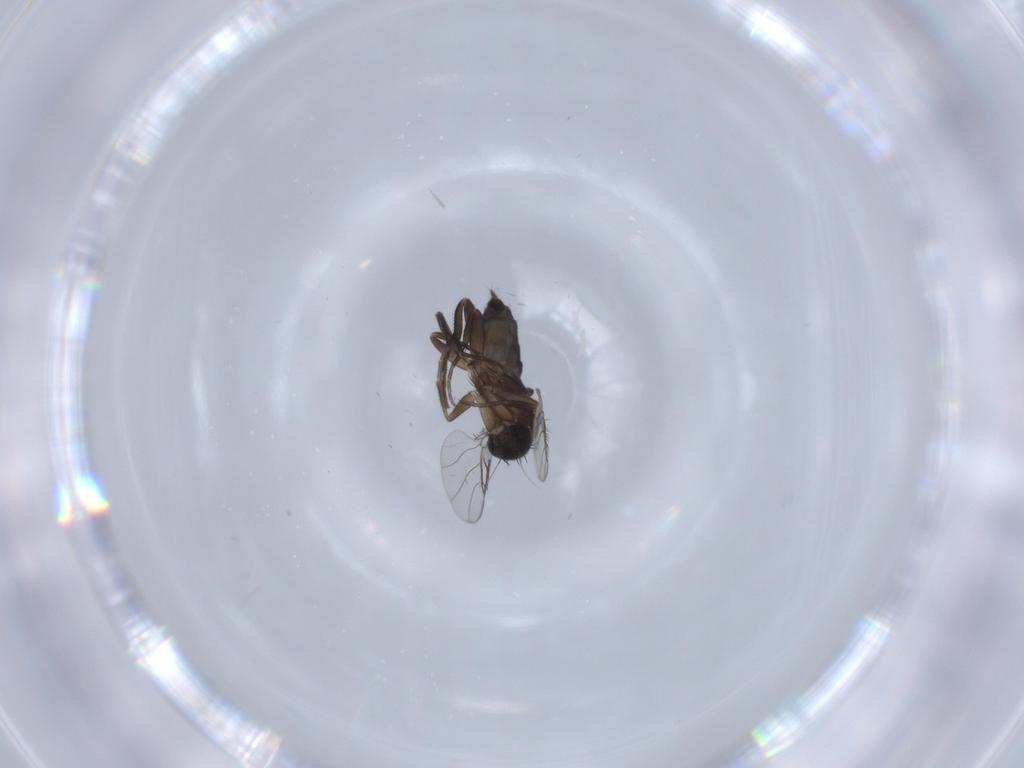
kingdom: Animalia
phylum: Arthropoda
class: Insecta
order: Diptera
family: Phoridae
